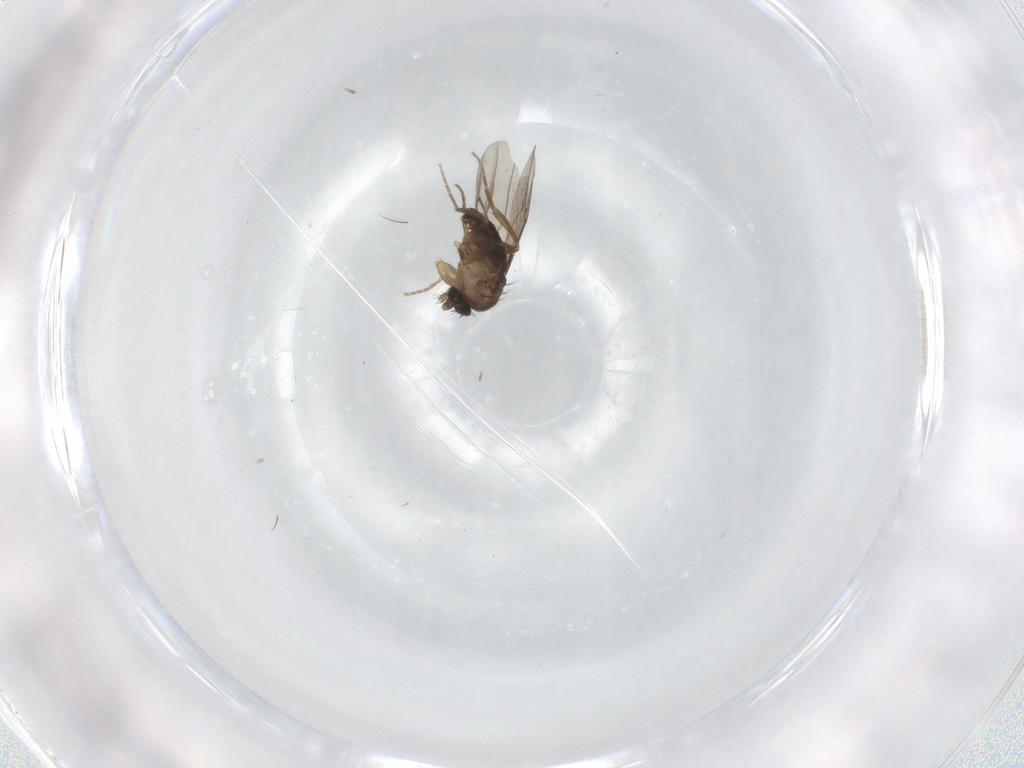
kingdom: Animalia
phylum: Arthropoda
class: Insecta
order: Diptera
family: Phoridae
